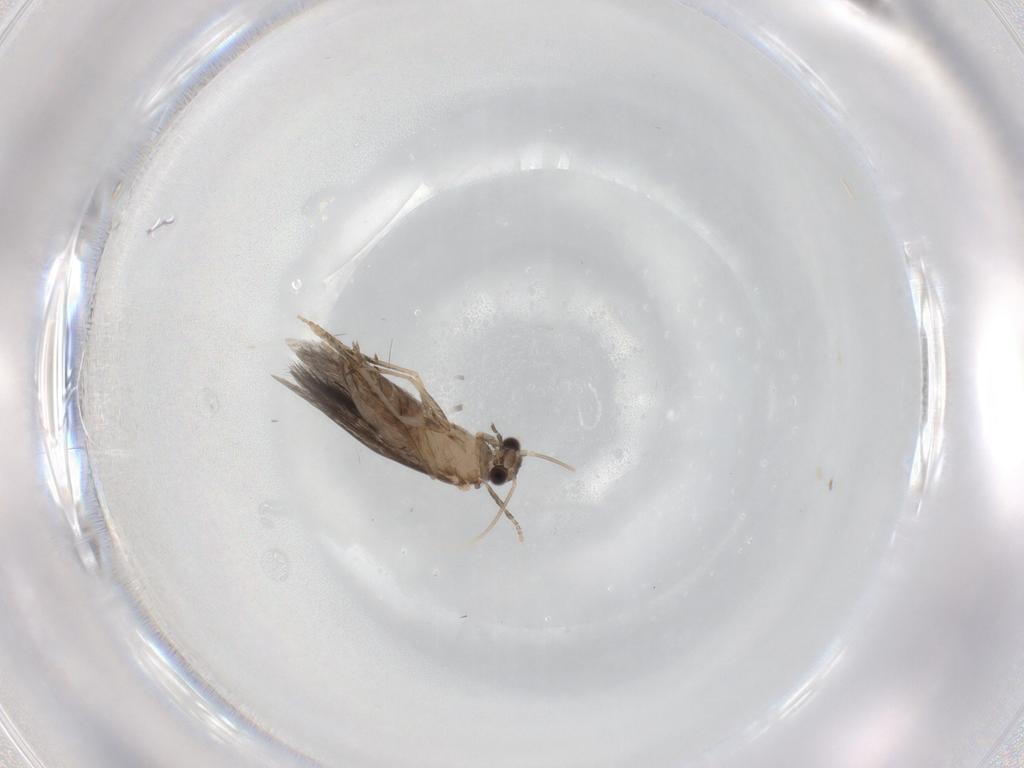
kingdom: Animalia
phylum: Arthropoda
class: Insecta
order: Trichoptera
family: Hydroptilidae
